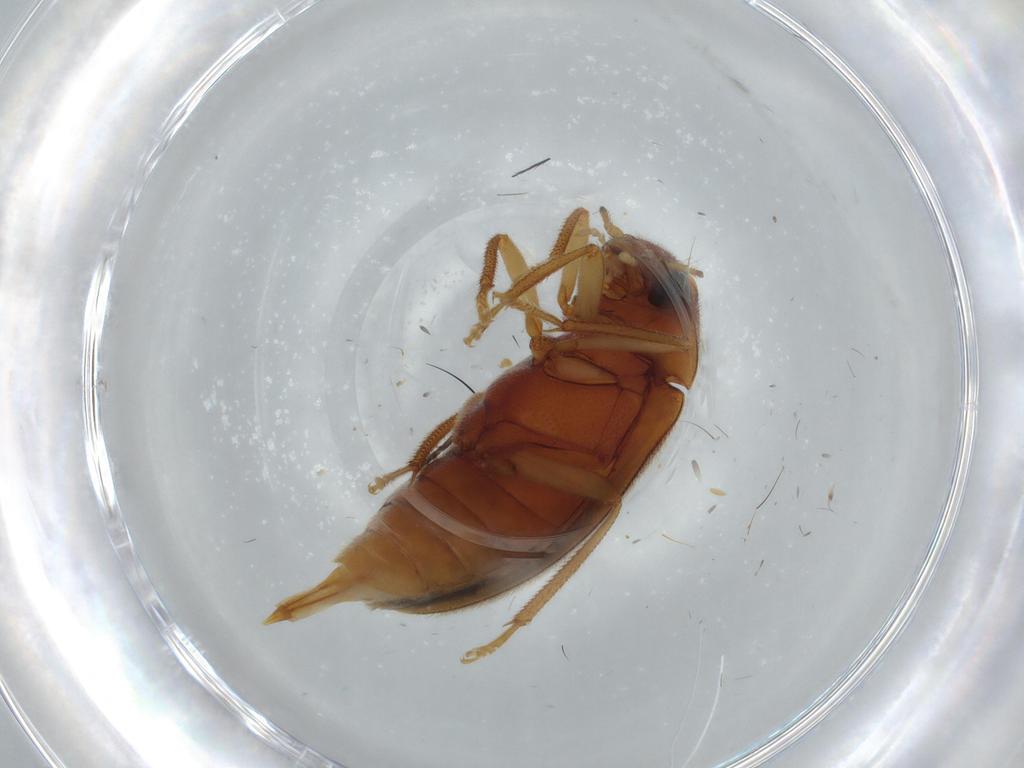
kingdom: Animalia
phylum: Arthropoda
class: Insecta
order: Coleoptera
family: Ptilodactylidae
